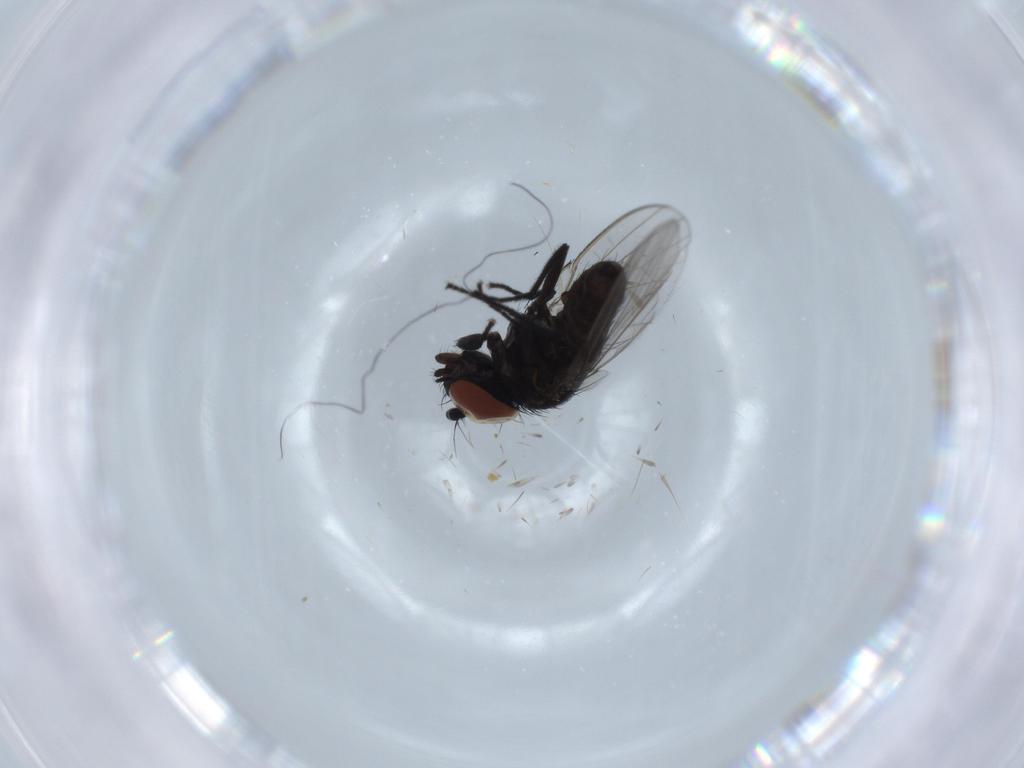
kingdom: Animalia
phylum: Arthropoda
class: Insecta
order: Diptera
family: Milichiidae
